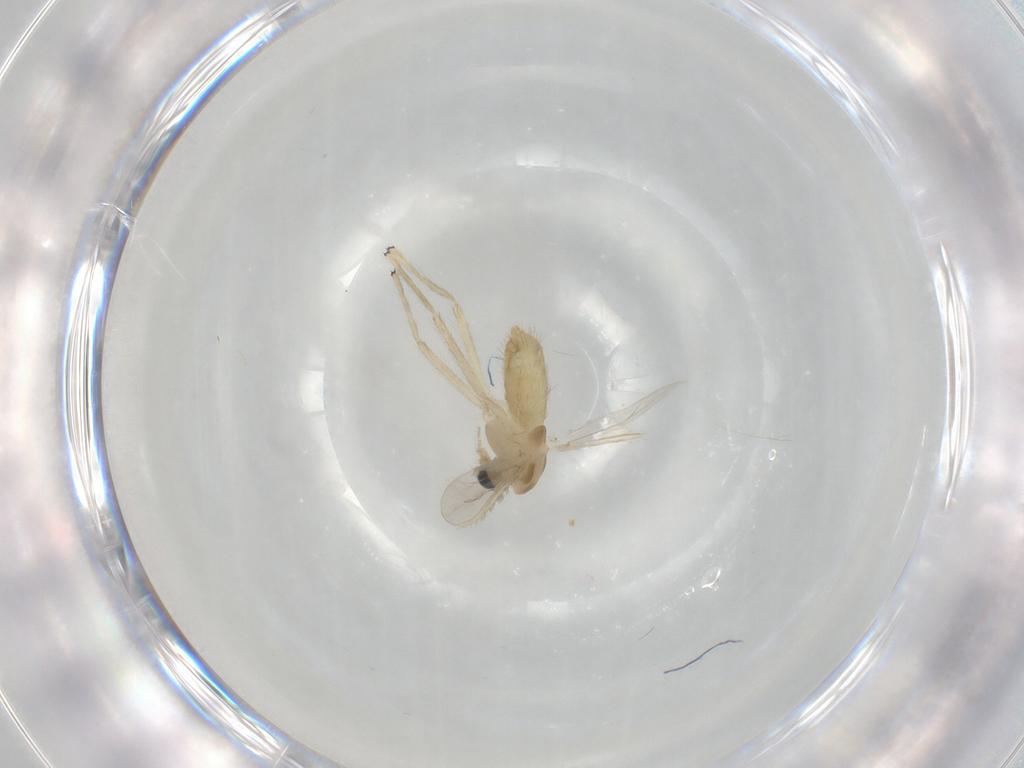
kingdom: Animalia
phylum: Arthropoda
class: Insecta
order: Diptera
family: Chironomidae
